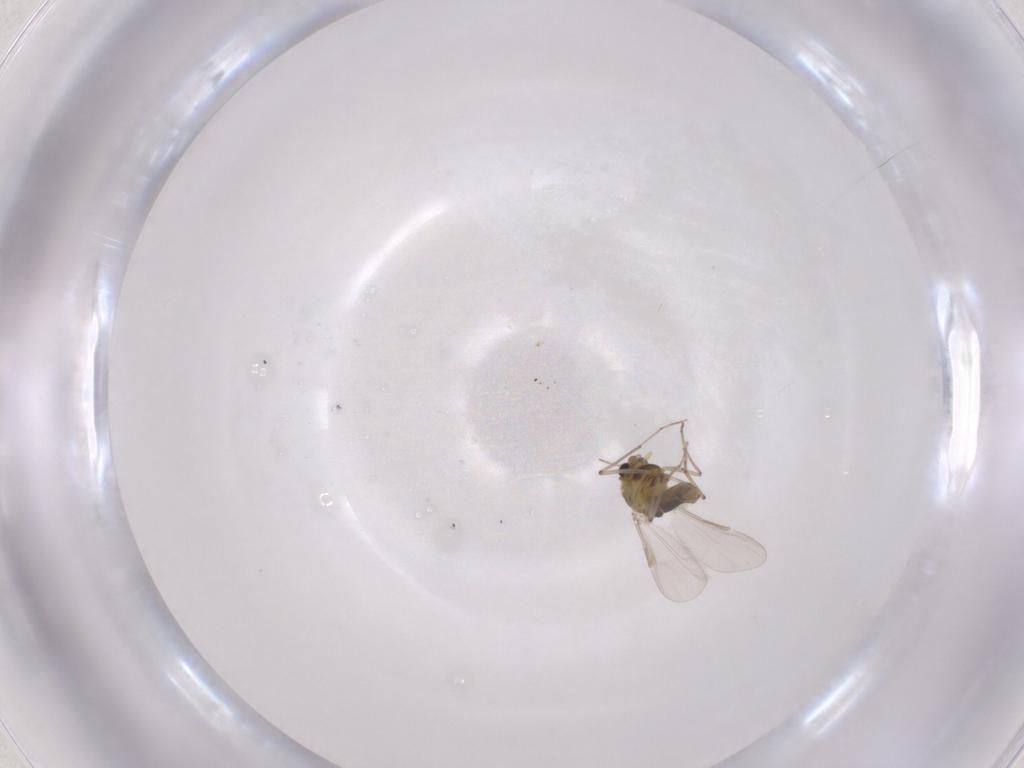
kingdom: Animalia
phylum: Arthropoda
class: Insecta
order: Diptera
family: Chironomidae
